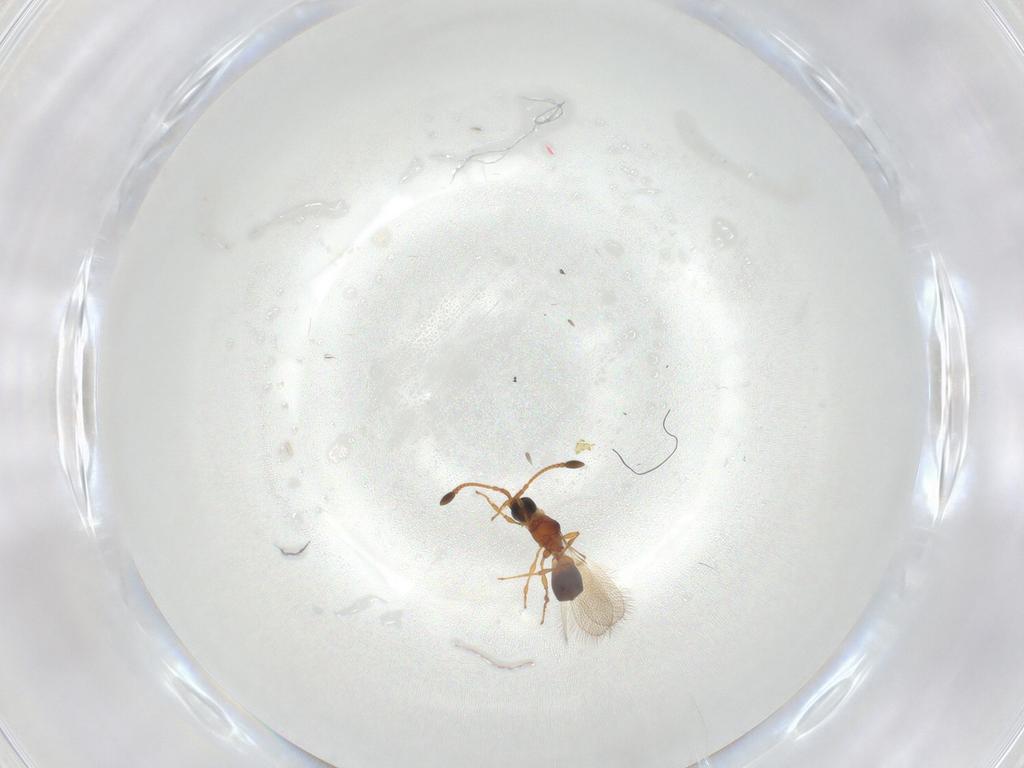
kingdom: Animalia
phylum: Arthropoda
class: Insecta
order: Hymenoptera
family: Diapriidae
